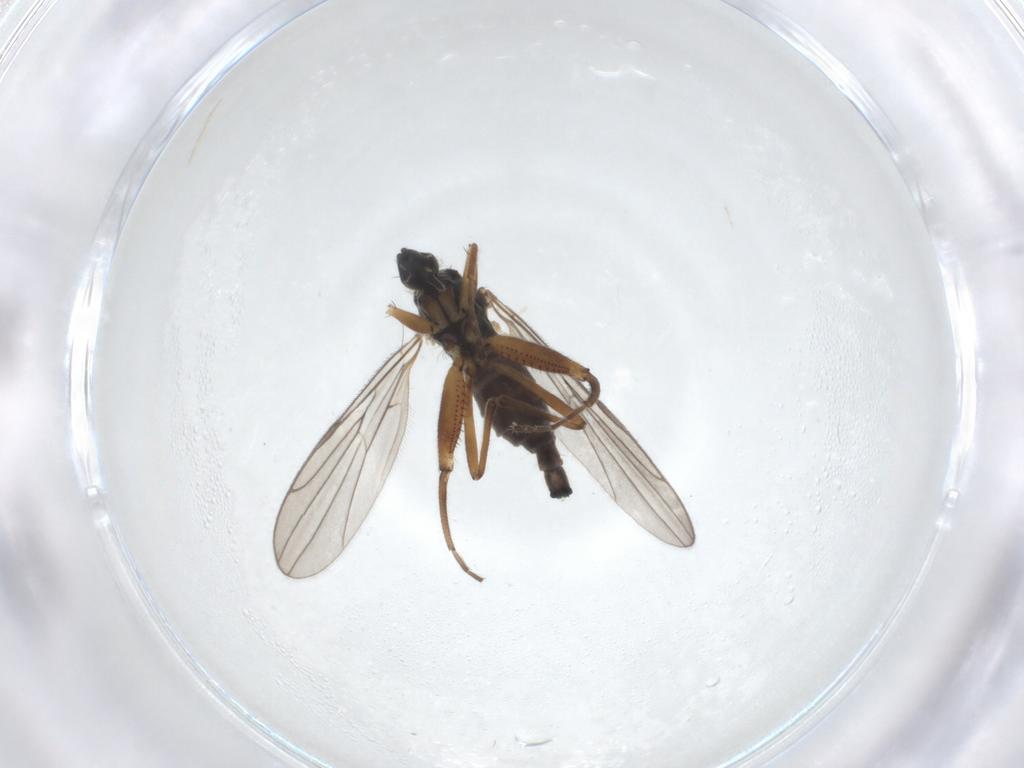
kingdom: Animalia
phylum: Arthropoda
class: Insecta
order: Diptera
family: Hybotidae
